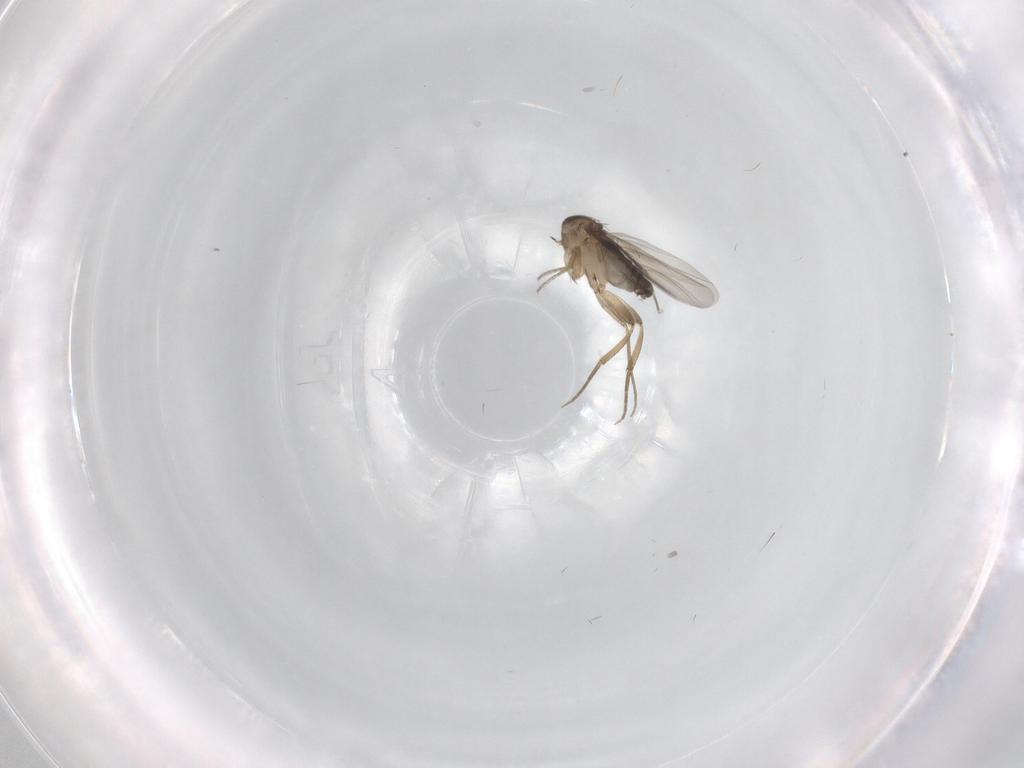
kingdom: Animalia
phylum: Arthropoda
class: Insecta
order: Diptera
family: Phoridae
